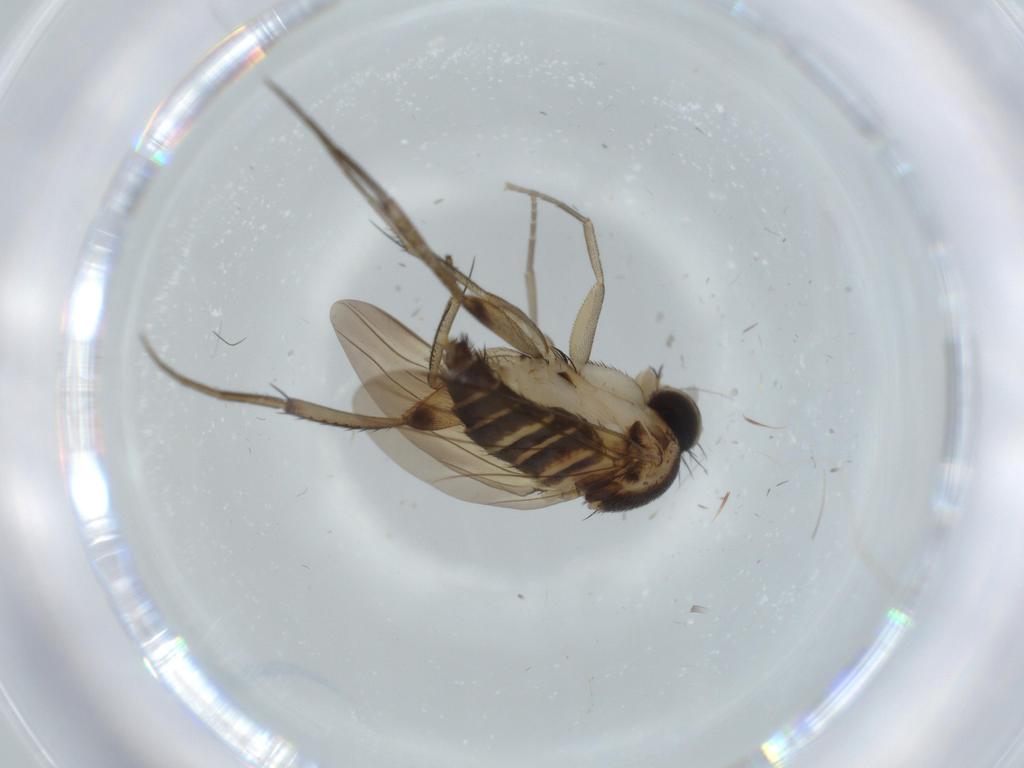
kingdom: Animalia
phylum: Arthropoda
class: Insecta
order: Diptera
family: Phoridae
